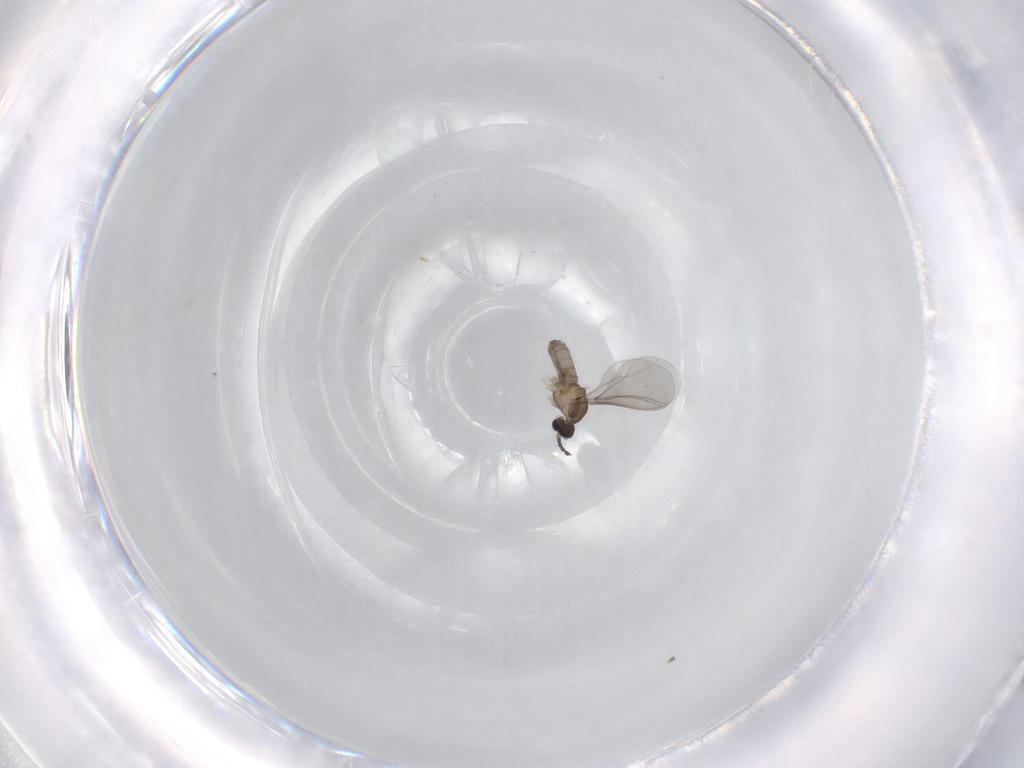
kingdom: Animalia
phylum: Arthropoda
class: Insecta
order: Diptera
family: Cecidomyiidae
